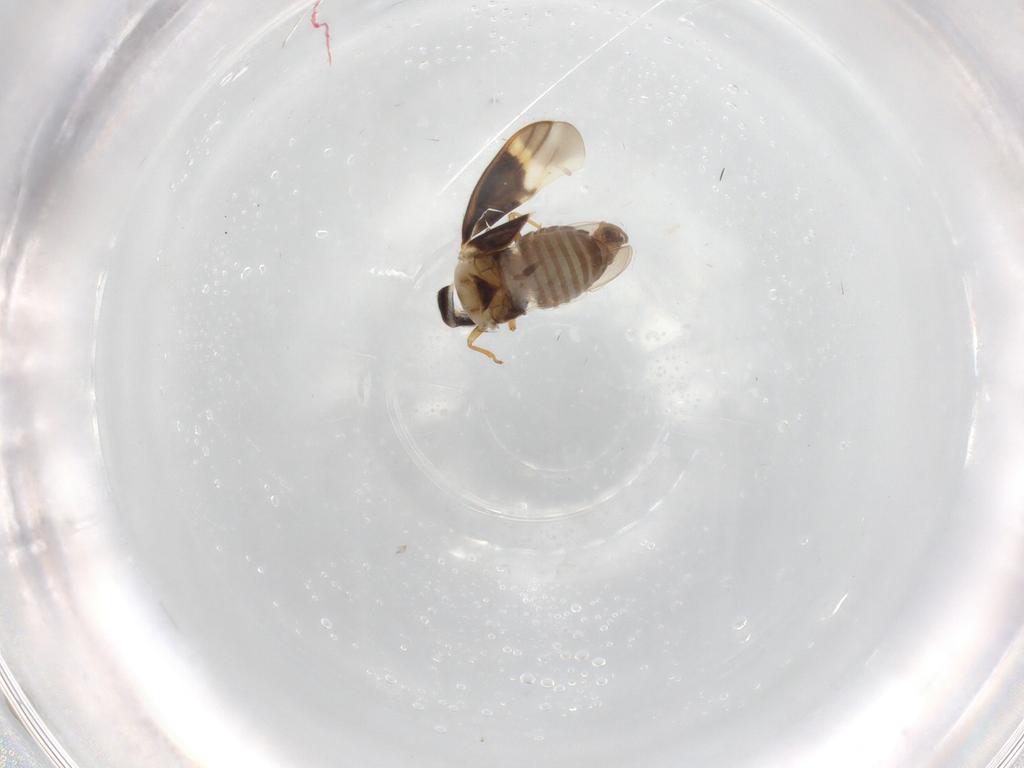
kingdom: Animalia
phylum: Arthropoda
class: Insecta
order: Hemiptera
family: Schizopteridae
